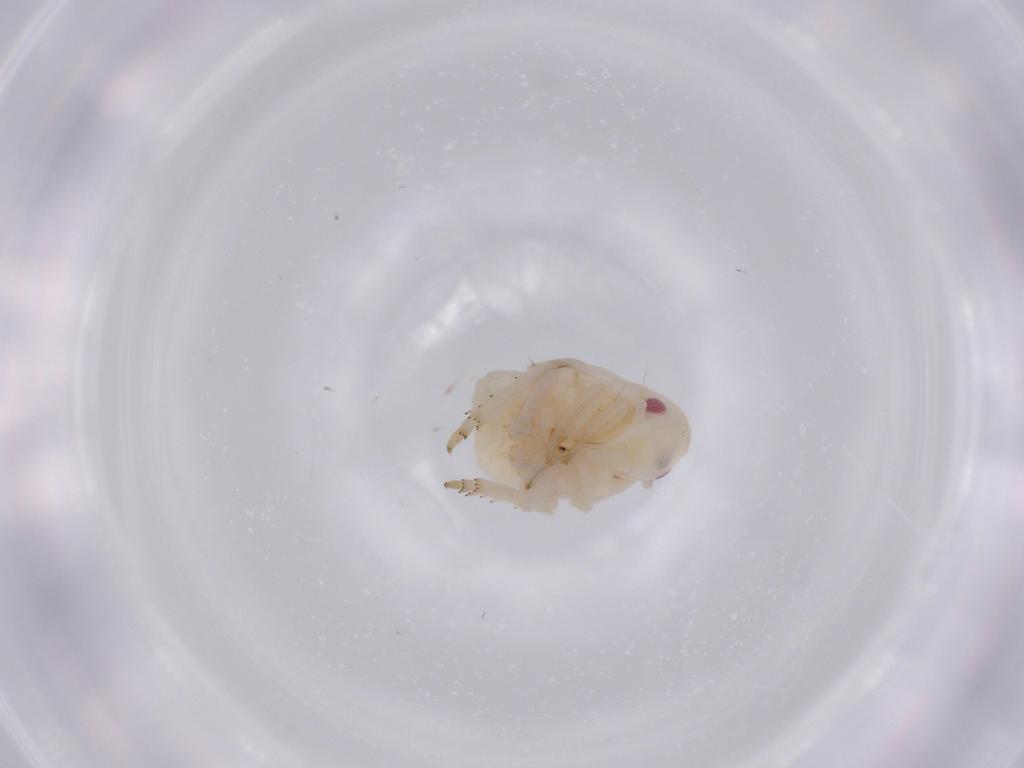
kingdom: Animalia
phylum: Arthropoda
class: Insecta
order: Hemiptera
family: Flatidae
